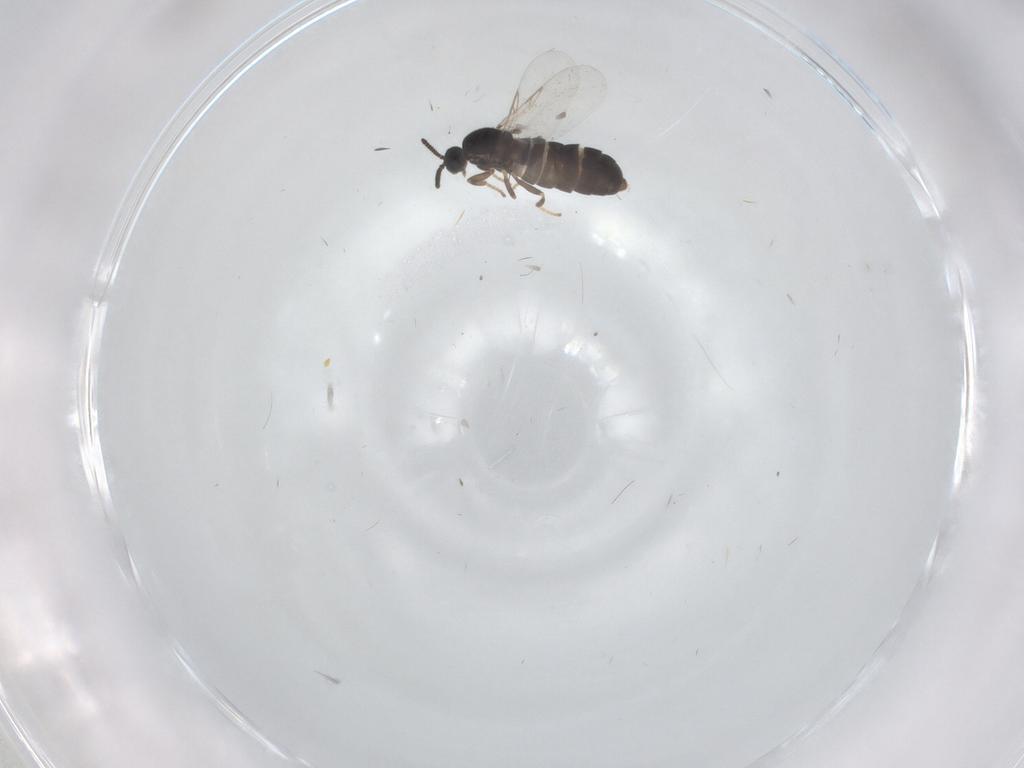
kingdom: Animalia
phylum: Arthropoda
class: Insecta
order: Diptera
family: Scatopsidae
